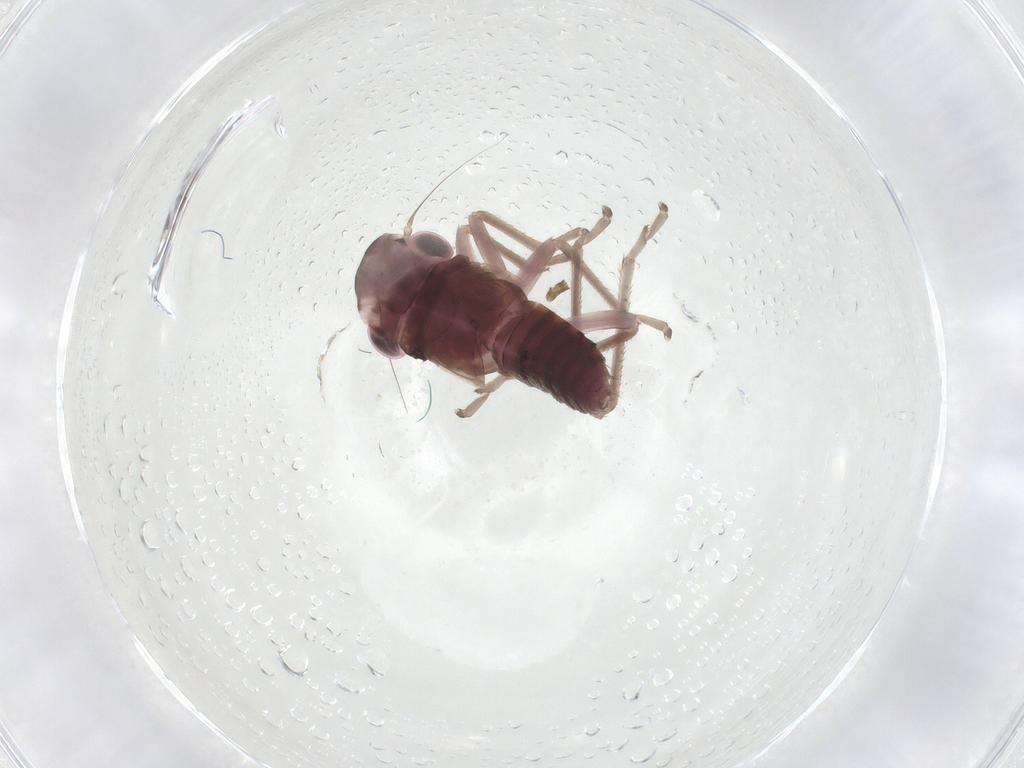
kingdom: Animalia
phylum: Arthropoda
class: Insecta
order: Hemiptera
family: Cicadellidae
